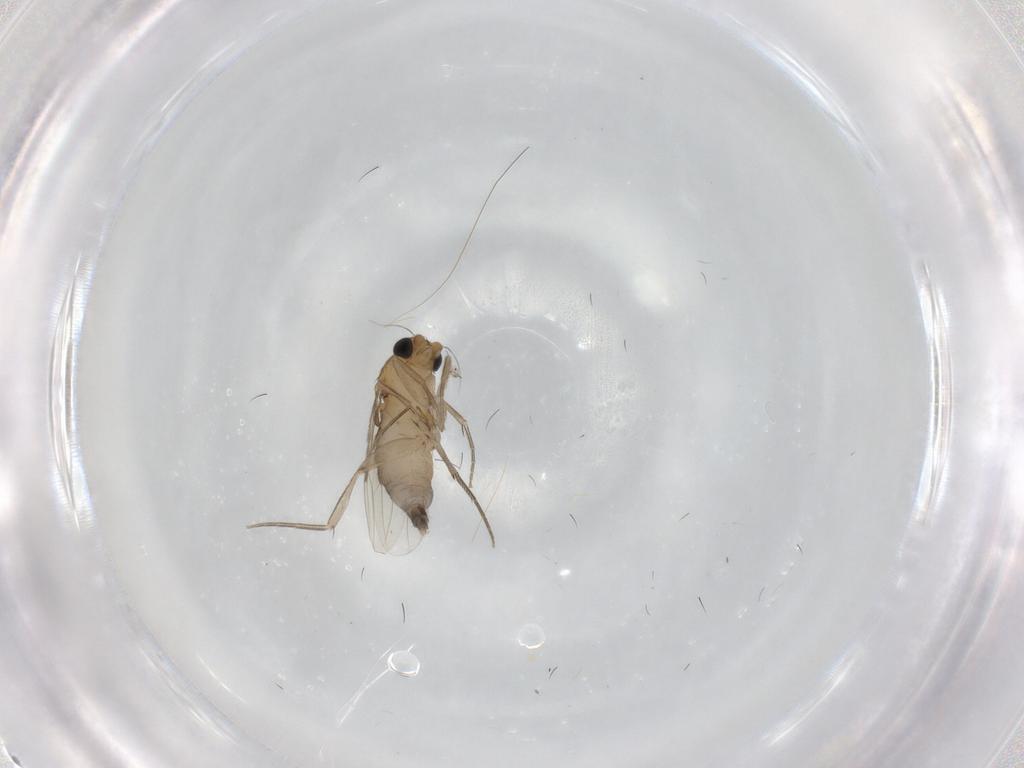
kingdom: Animalia
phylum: Arthropoda
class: Insecta
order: Diptera
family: Phoridae
